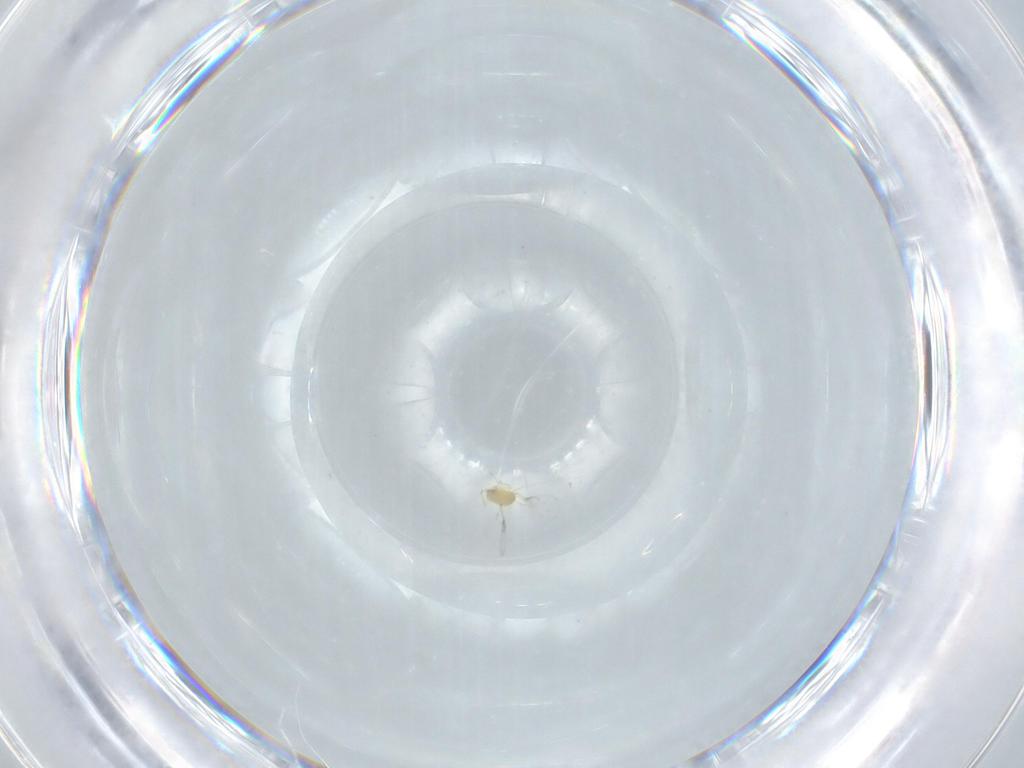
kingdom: Animalia
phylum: Arthropoda
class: Insecta
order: Hymenoptera
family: Trichogrammatidae
